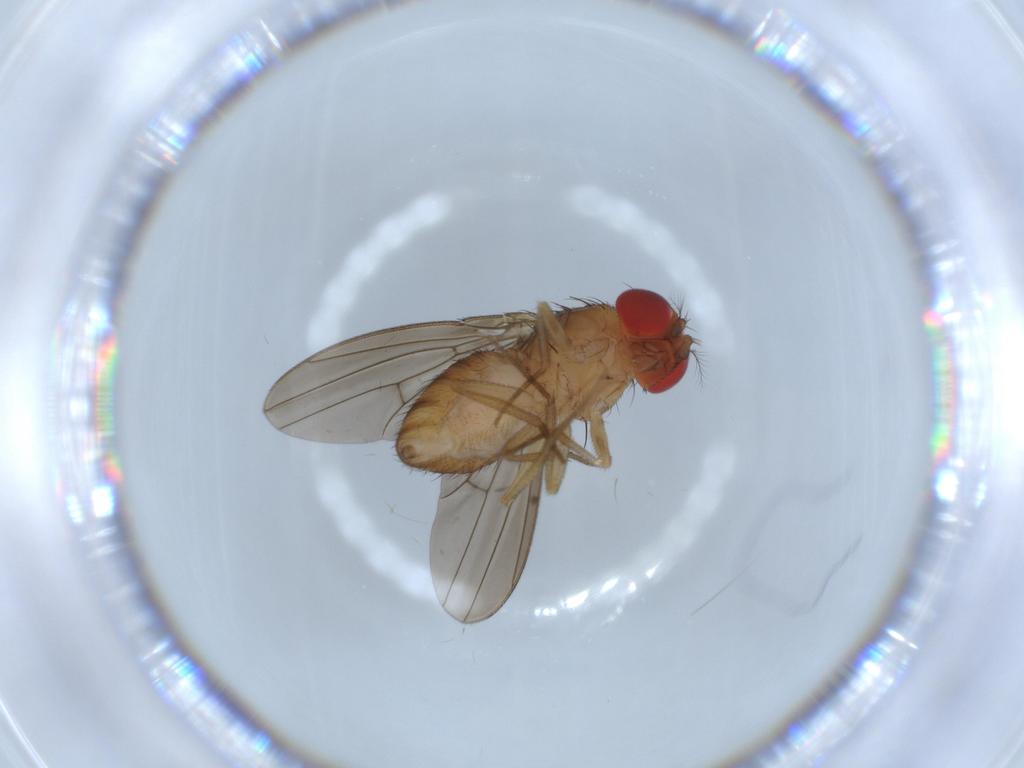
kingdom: Animalia
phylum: Arthropoda
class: Insecta
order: Diptera
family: Drosophilidae
